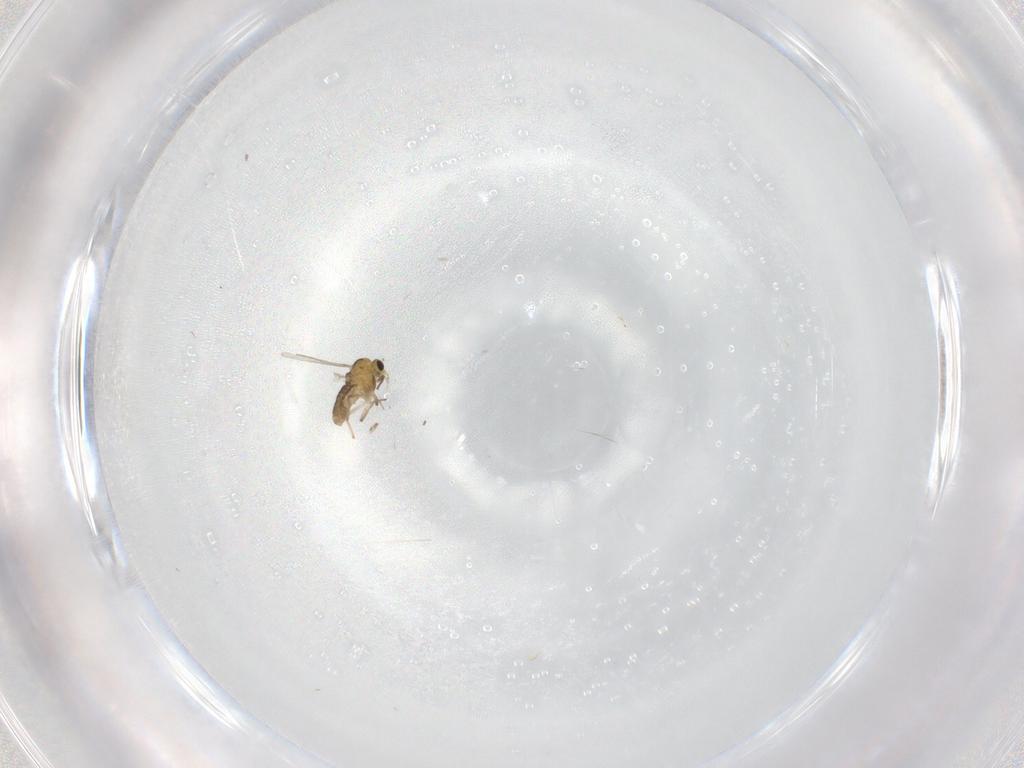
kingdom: Animalia
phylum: Arthropoda
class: Insecta
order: Diptera
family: Chironomidae
